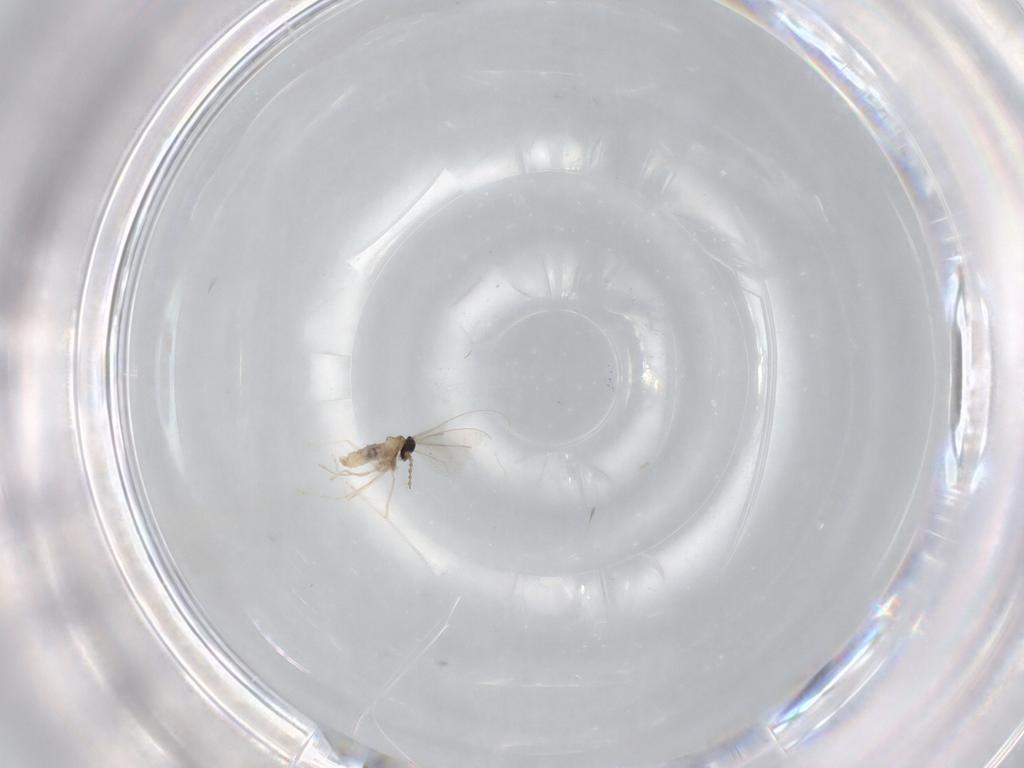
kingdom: Animalia
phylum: Arthropoda
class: Insecta
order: Diptera
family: Cecidomyiidae
